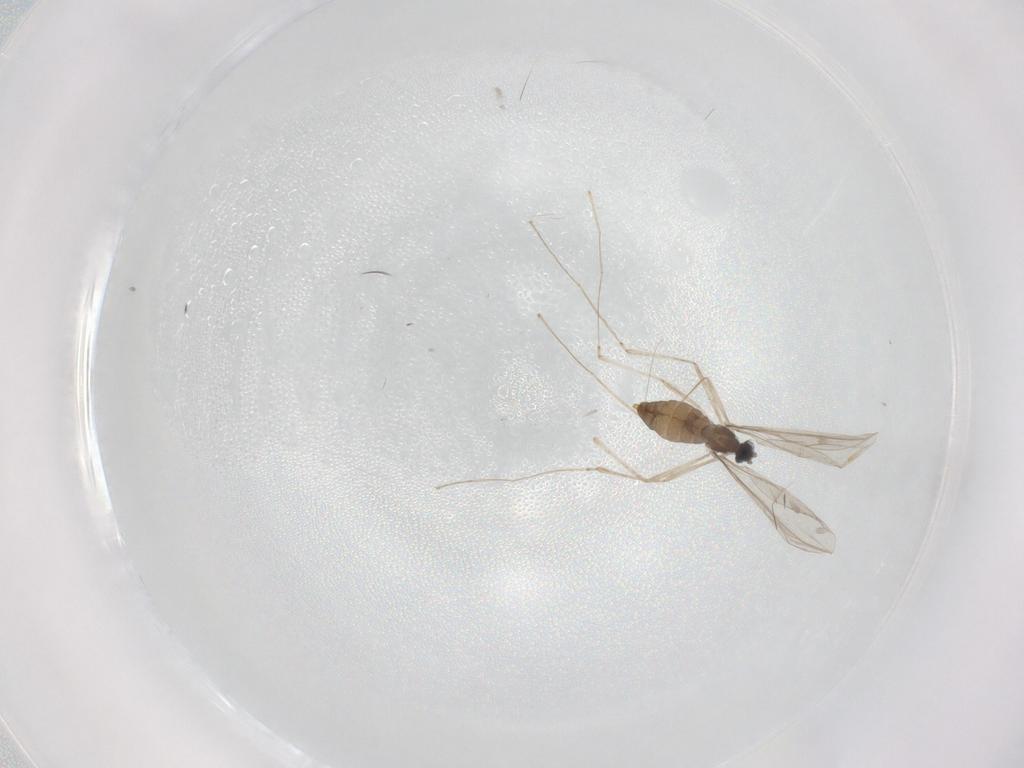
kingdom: Animalia
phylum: Arthropoda
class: Insecta
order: Diptera
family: Cecidomyiidae
